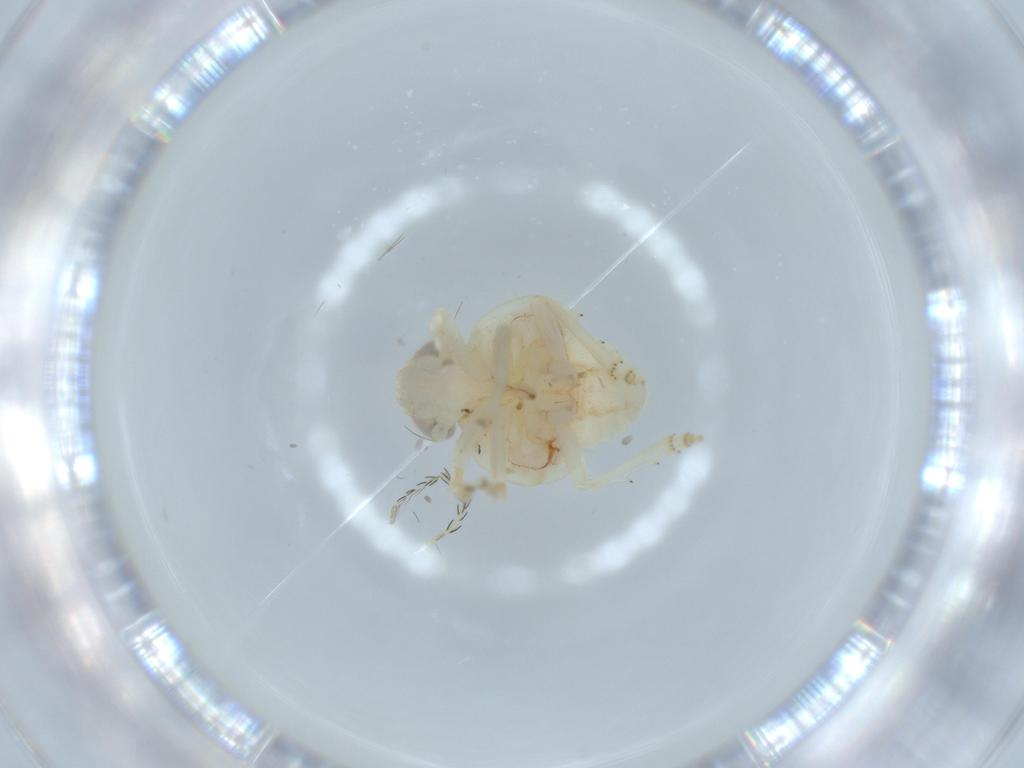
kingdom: Animalia
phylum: Arthropoda
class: Insecta
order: Hemiptera
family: Nogodinidae
